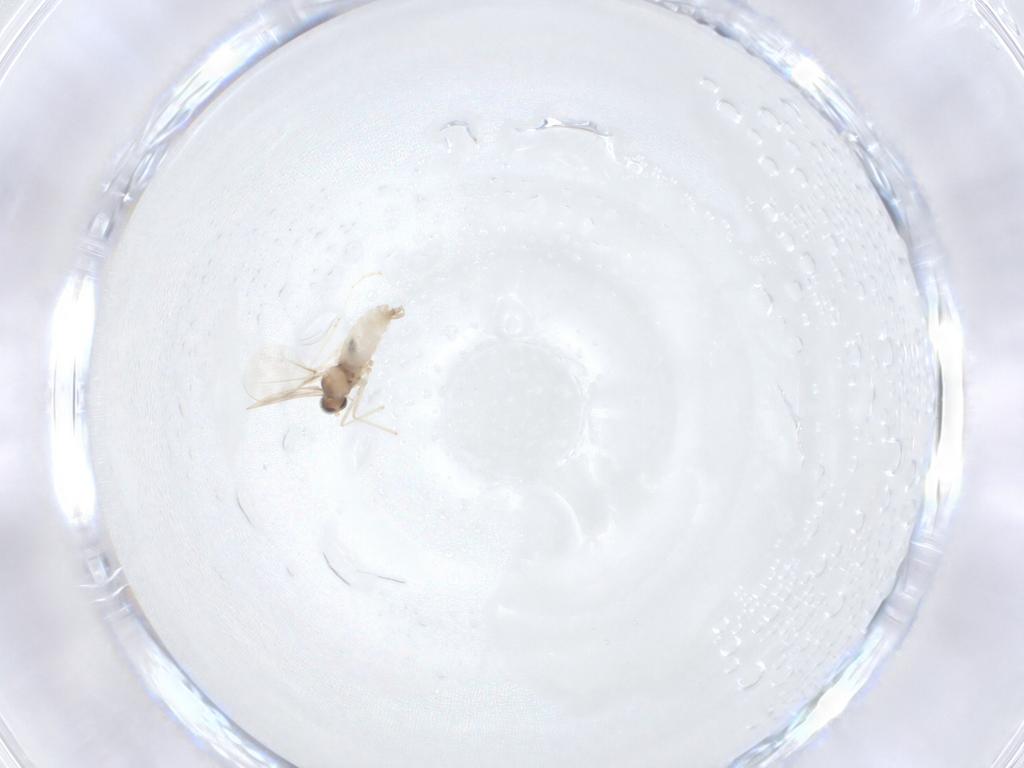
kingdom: Animalia
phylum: Arthropoda
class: Insecta
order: Diptera
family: Cecidomyiidae
